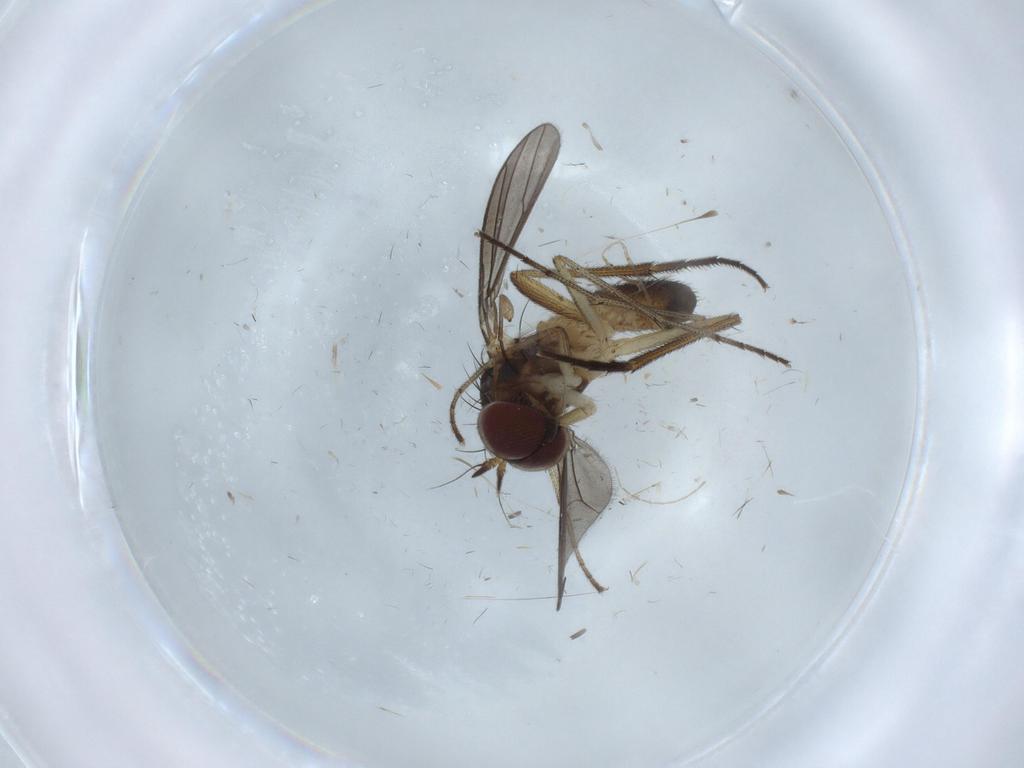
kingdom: Animalia
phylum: Arthropoda
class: Insecta
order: Diptera
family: Dolichopodidae
